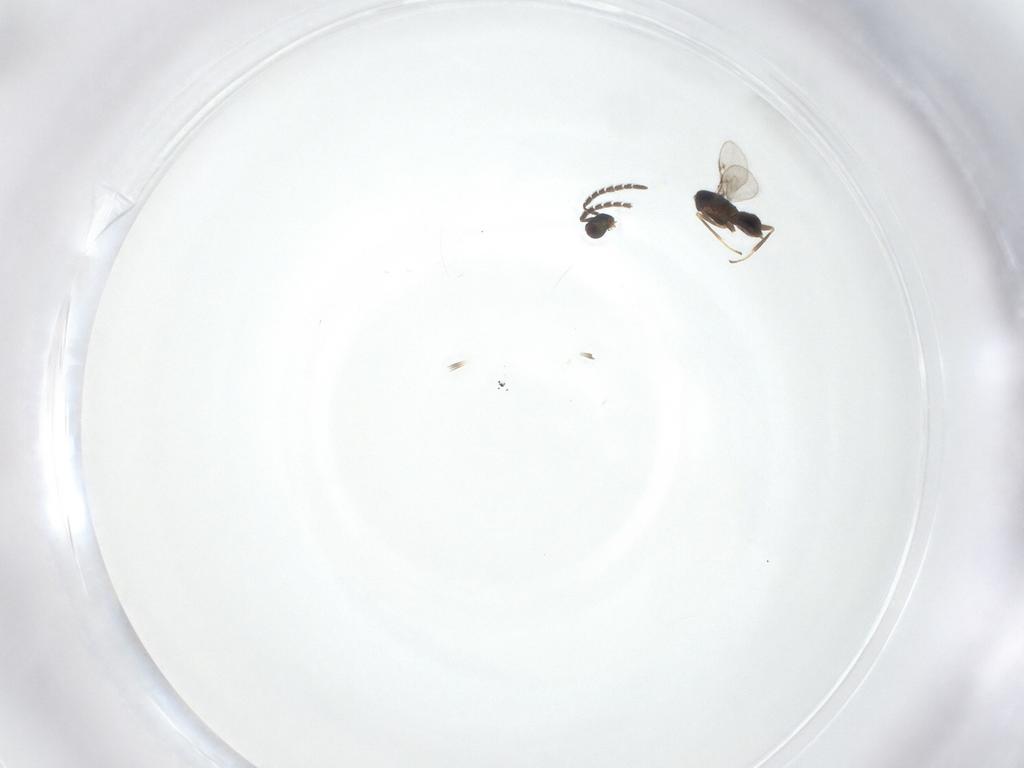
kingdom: Animalia
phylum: Arthropoda
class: Insecta
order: Hymenoptera
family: Encyrtidae
